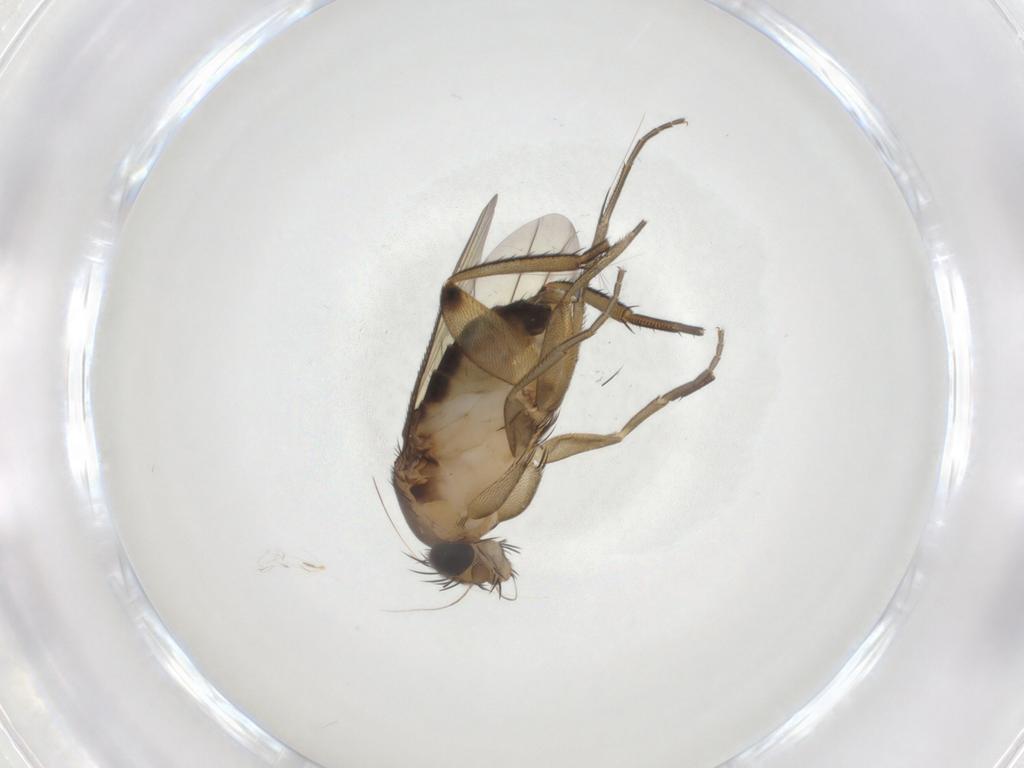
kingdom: Animalia
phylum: Arthropoda
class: Insecta
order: Diptera
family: Phoridae
